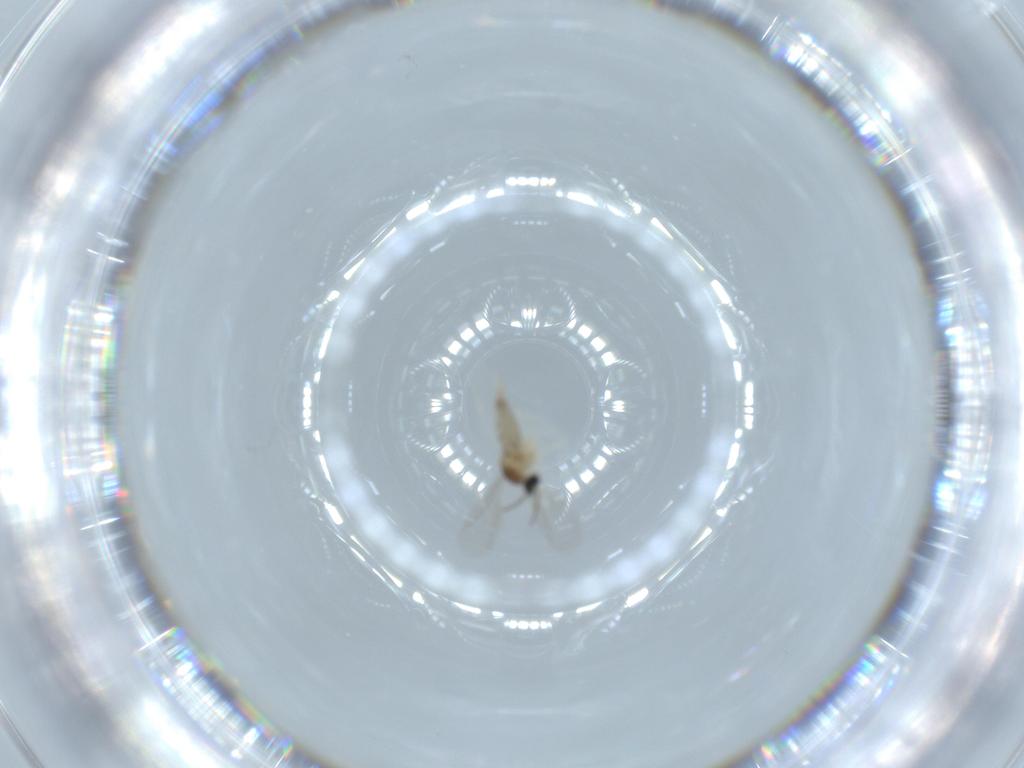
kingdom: Animalia
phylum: Arthropoda
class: Insecta
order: Diptera
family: Cecidomyiidae
